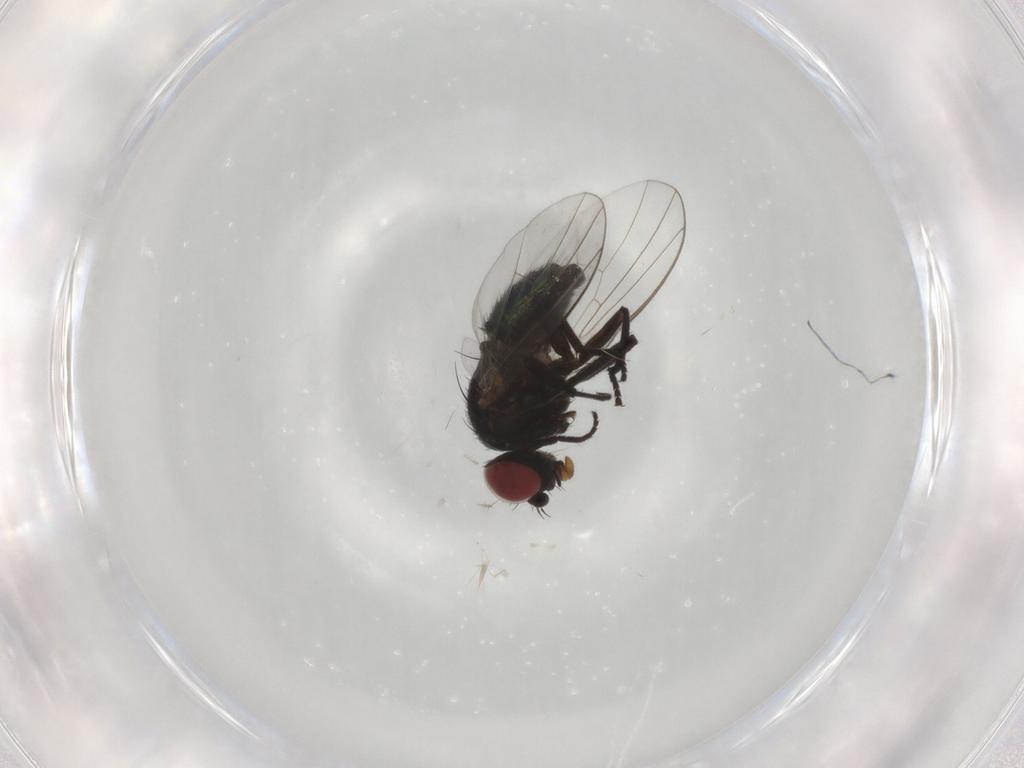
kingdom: Animalia
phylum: Arthropoda
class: Insecta
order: Diptera
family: Agromyzidae
